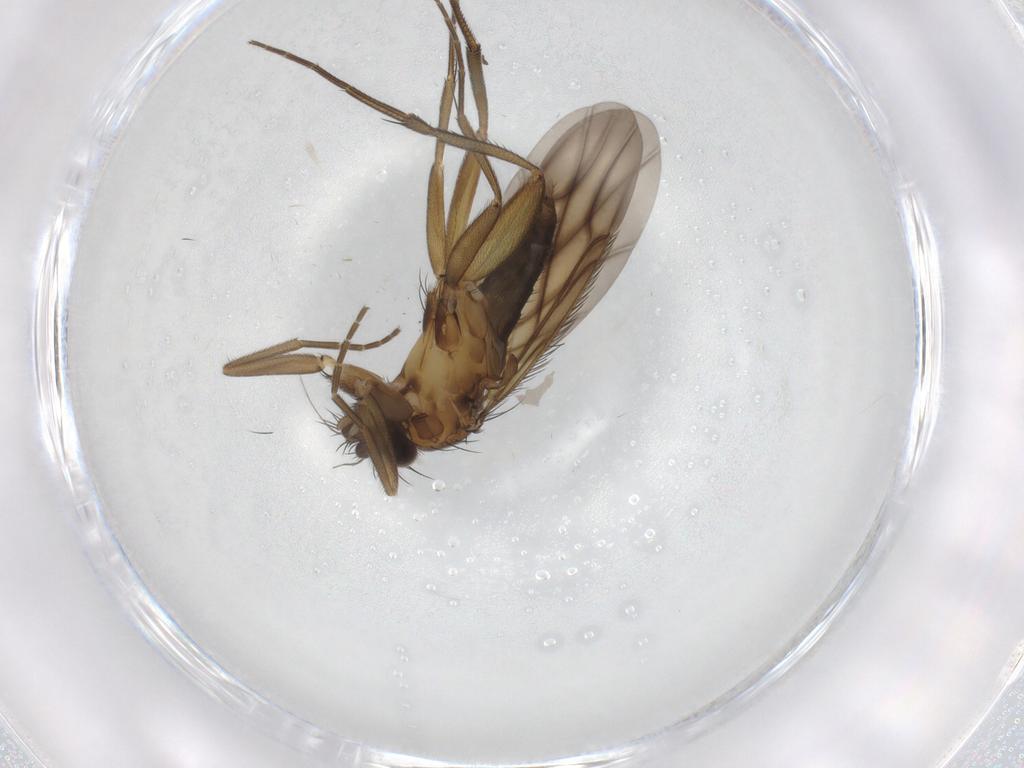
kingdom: Animalia
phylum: Arthropoda
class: Insecta
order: Diptera
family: Phoridae
